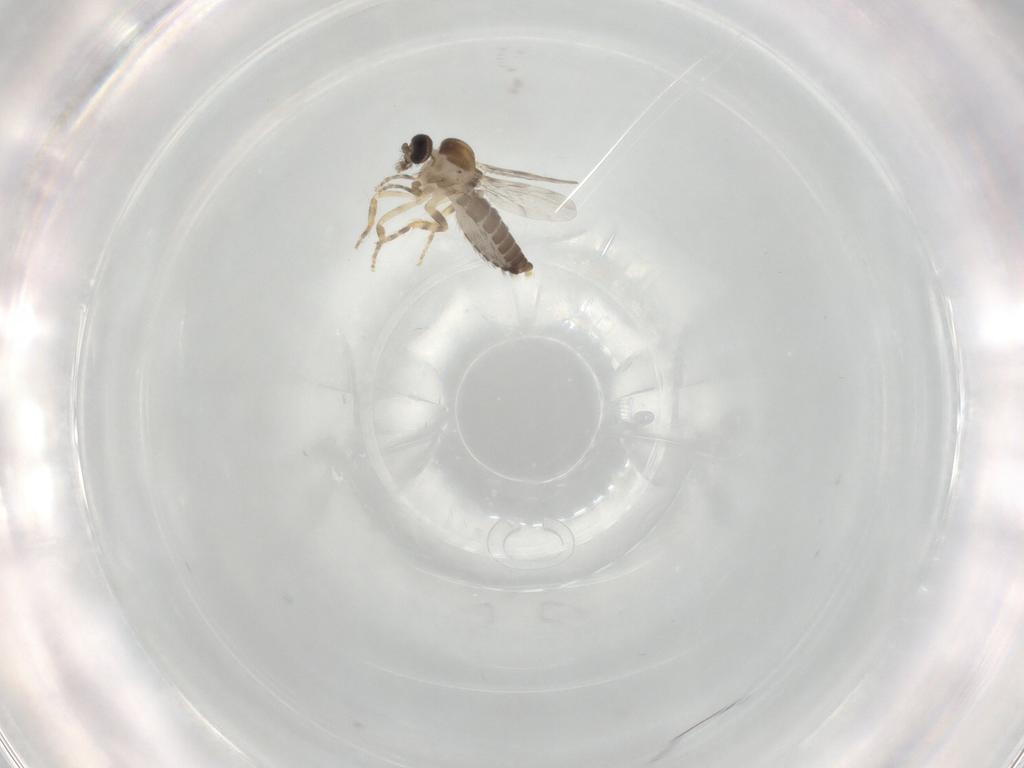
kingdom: Animalia
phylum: Arthropoda
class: Insecta
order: Diptera
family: Ceratopogonidae
